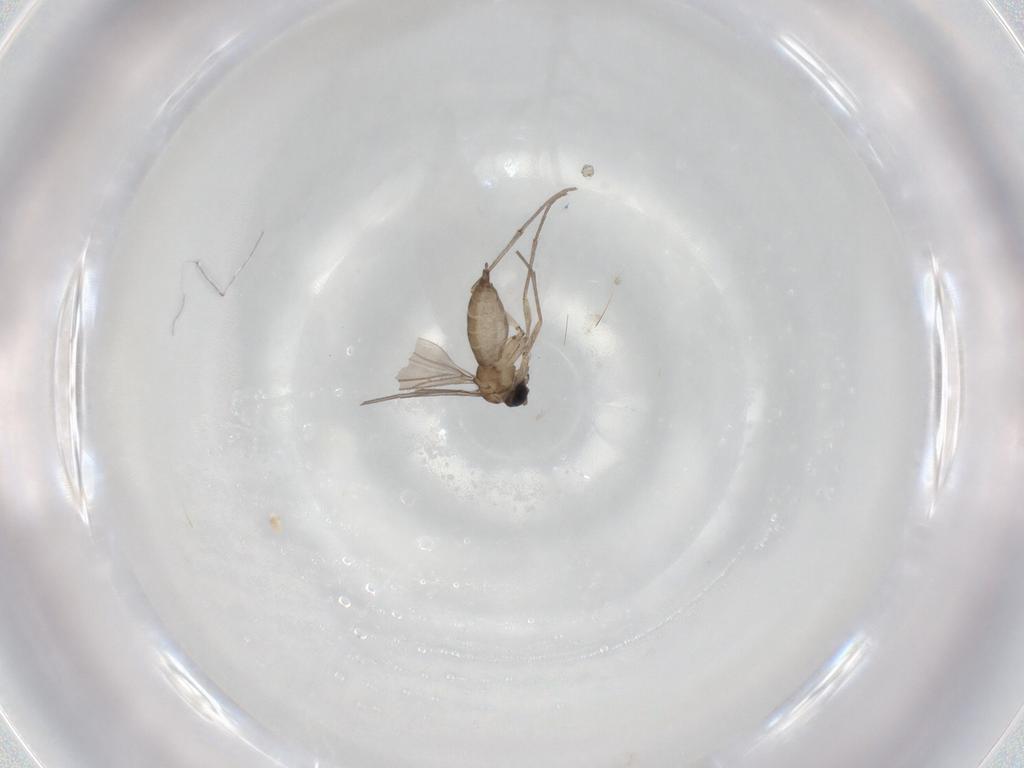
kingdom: Animalia
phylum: Arthropoda
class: Insecta
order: Diptera
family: Sciaridae
